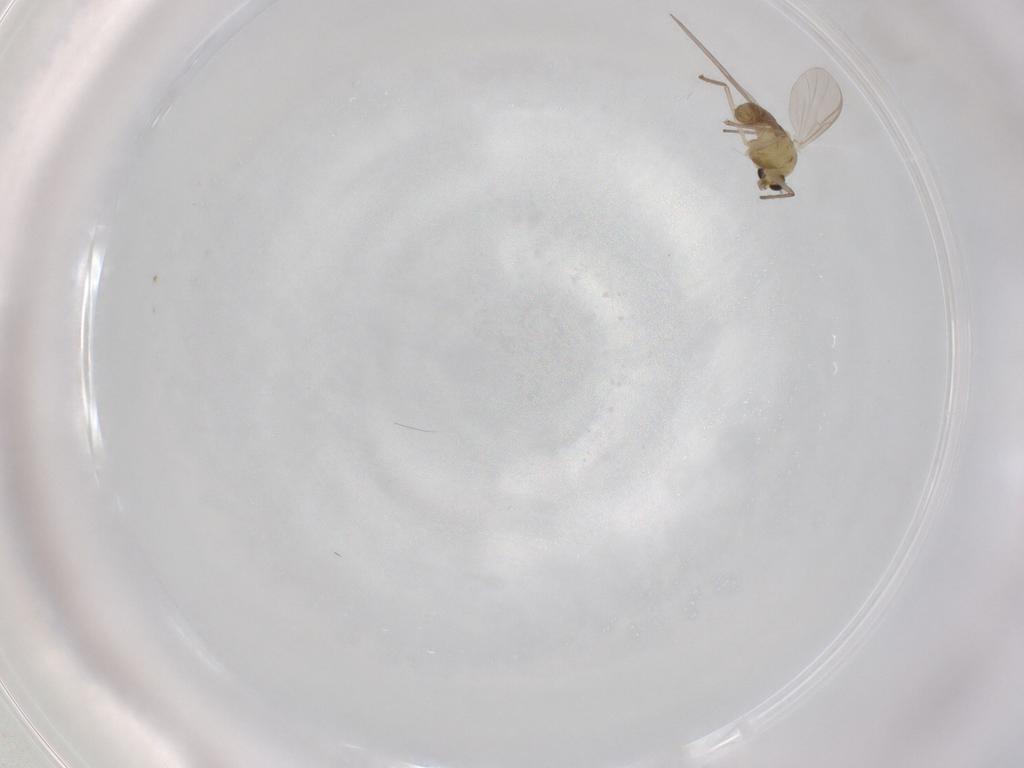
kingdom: Animalia
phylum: Arthropoda
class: Insecta
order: Diptera
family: Chironomidae
